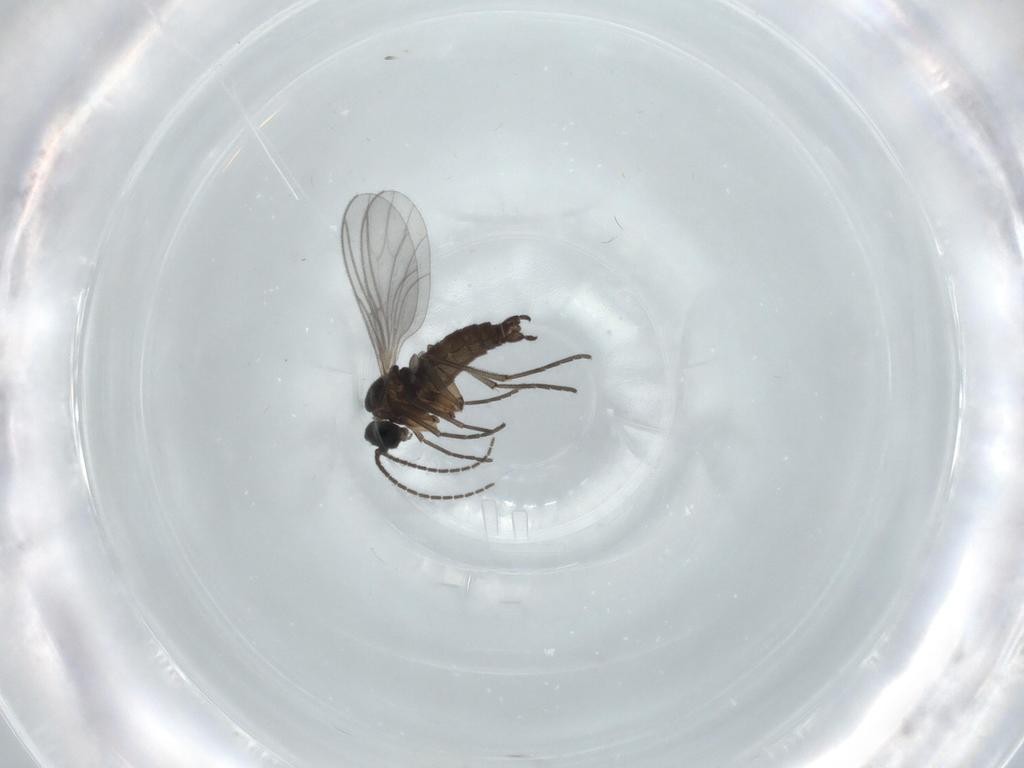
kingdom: Animalia
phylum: Arthropoda
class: Insecta
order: Diptera
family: Sciaridae
